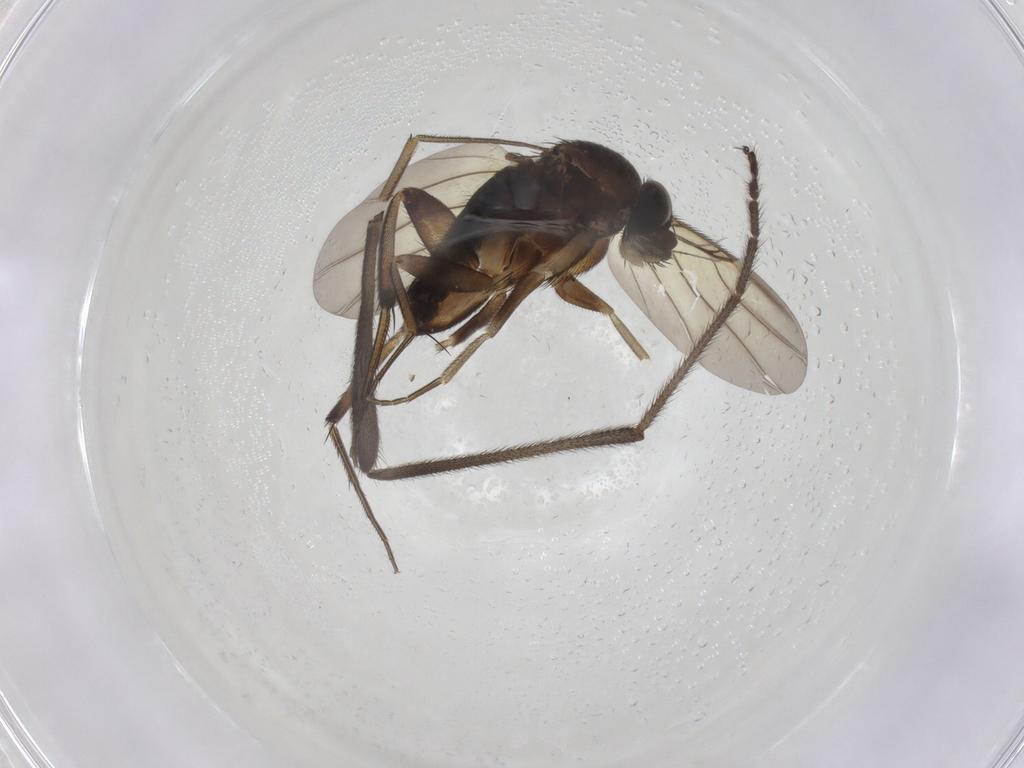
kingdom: Animalia
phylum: Arthropoda
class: Insecta
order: Diptera
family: Limoniidae
